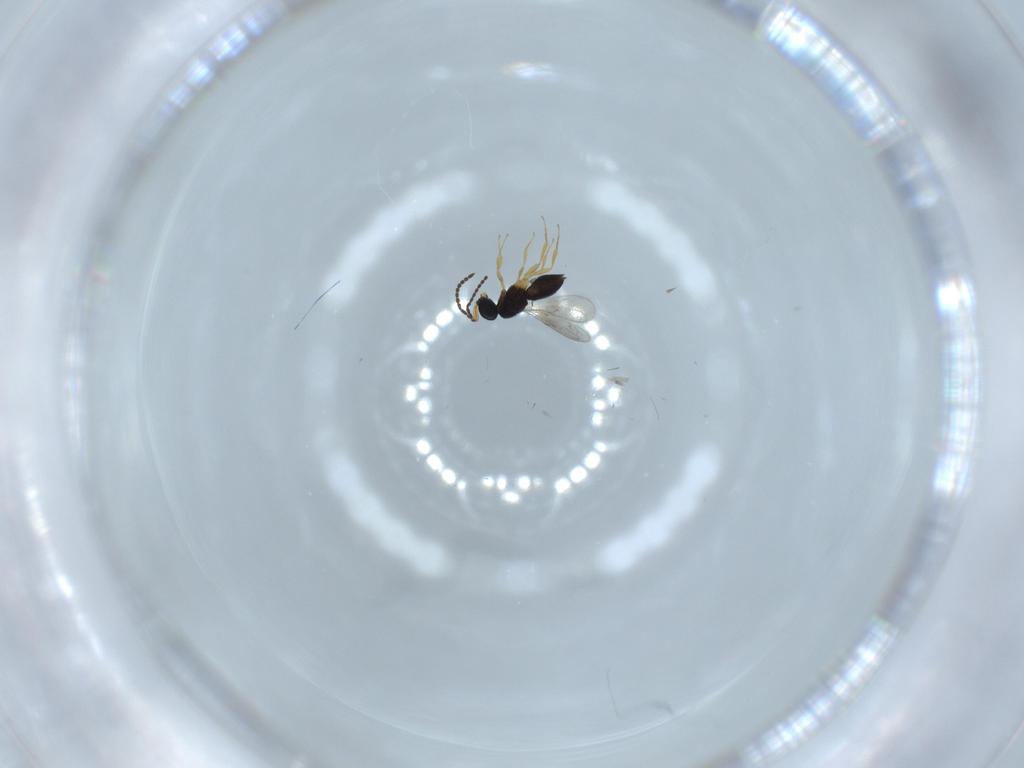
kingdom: Animalia
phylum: Arthropoda
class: Insecta
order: Hymenoptera
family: Scelionidae
